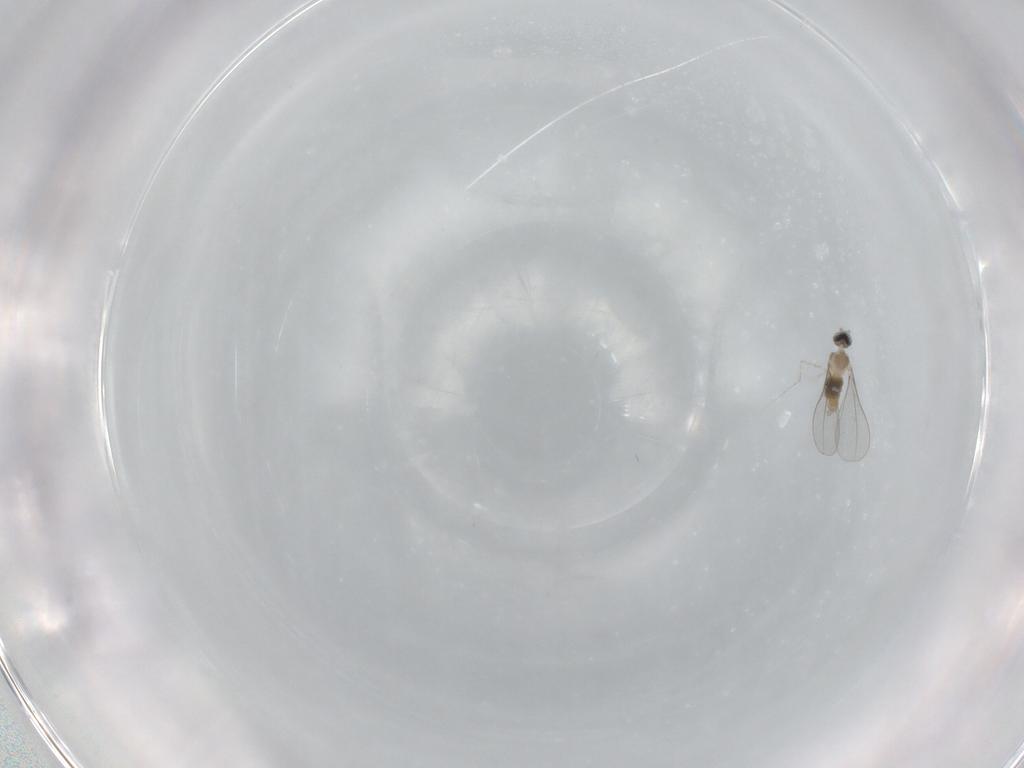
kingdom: Animalia
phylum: Arthropoda
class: Insecta
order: Diptera
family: Cecidomyiidae
